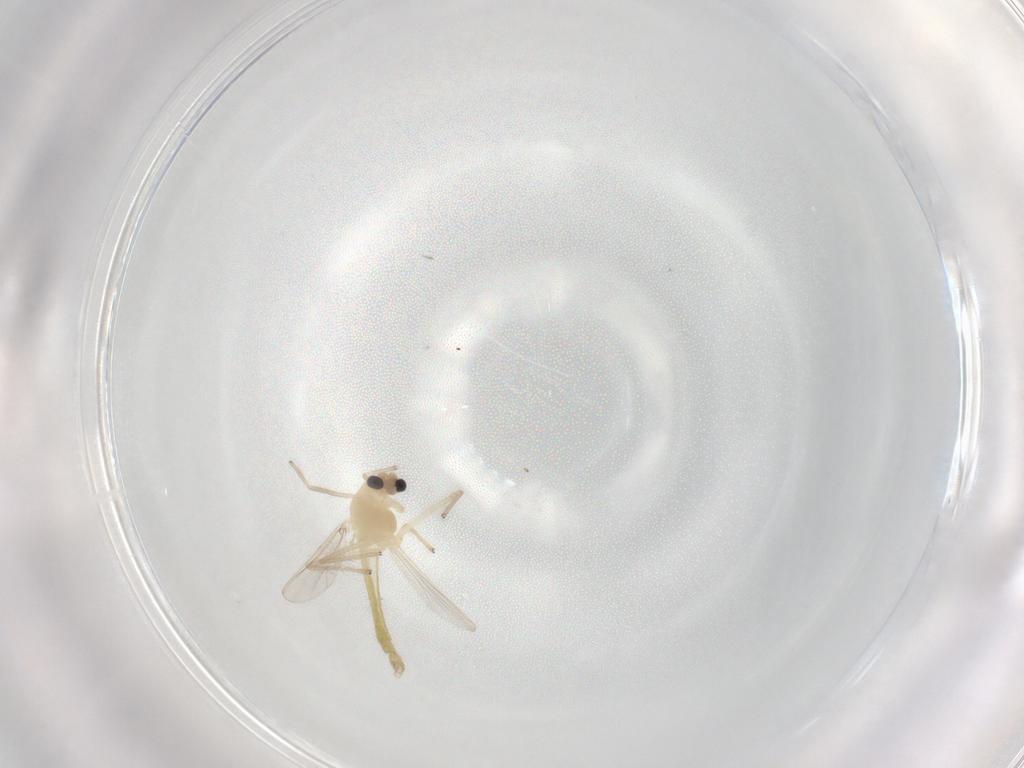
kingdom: Animalia
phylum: Arthropoda
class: Insecta
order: Diptera
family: Chironomidae
